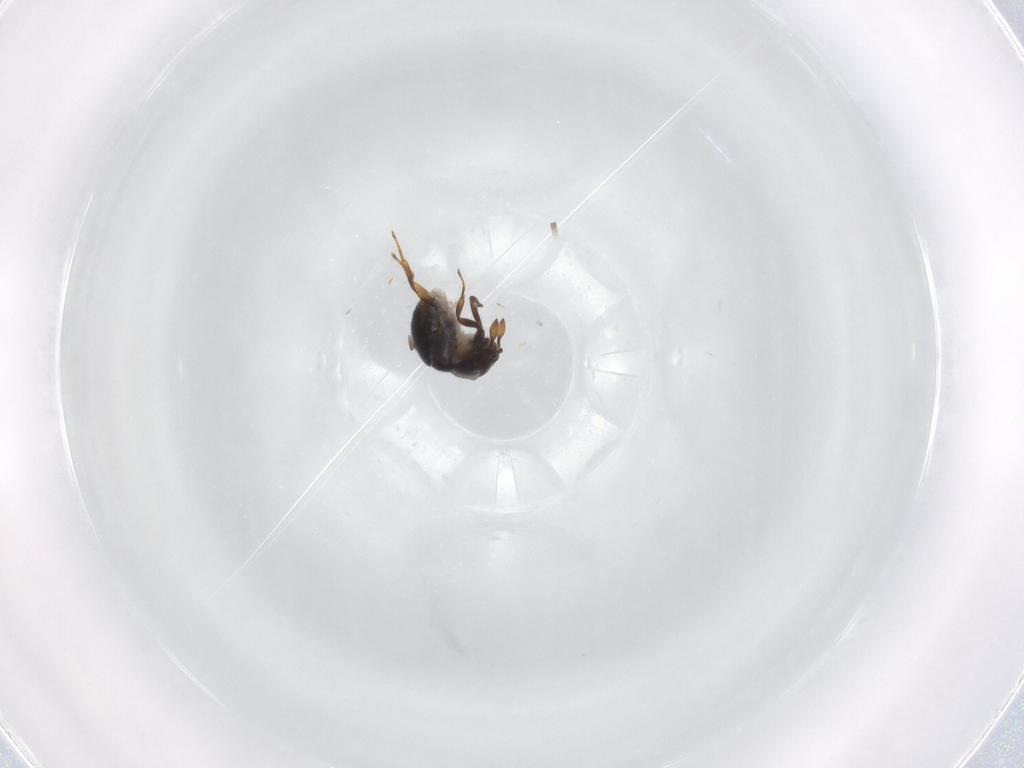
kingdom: Animalia
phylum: Arthropoda
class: Insecta
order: Hymenoptera
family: Scelionidae
